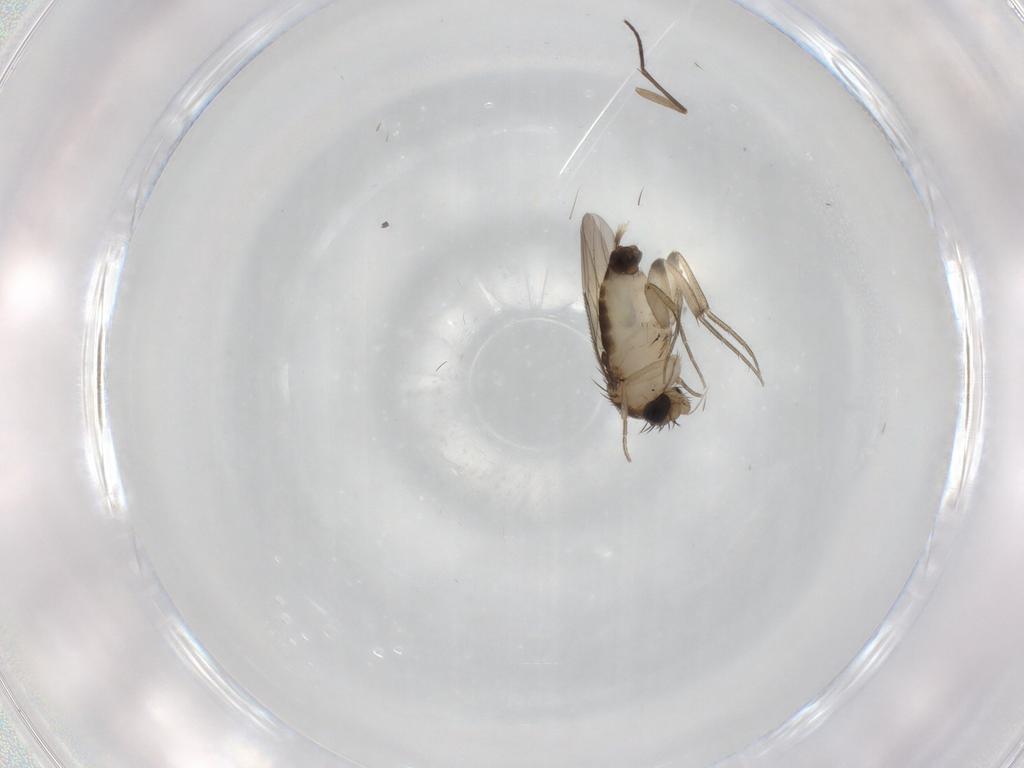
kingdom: Animalia
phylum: Arthropoda
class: Insecta
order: Diptera
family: Phoridae
